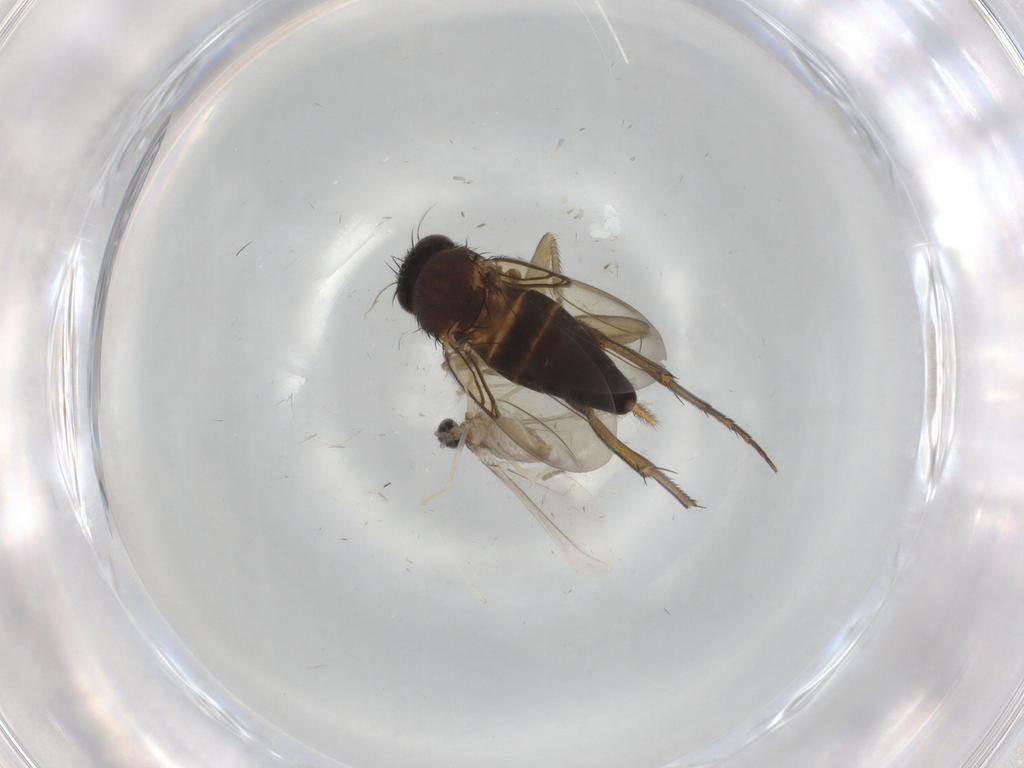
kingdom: Animalia
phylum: Arthropoda
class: Insecta
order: Diptera
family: Phoridae
